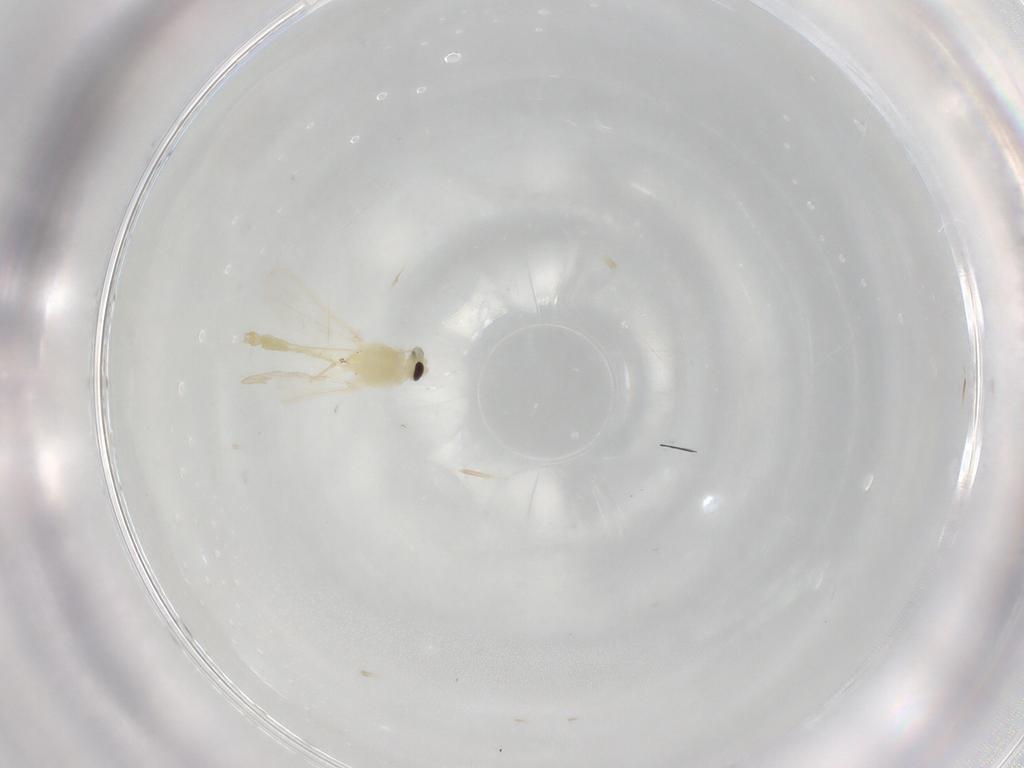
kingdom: Animalia
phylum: Arthropoda
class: Insecta
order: Diptera
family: Chironomidae
